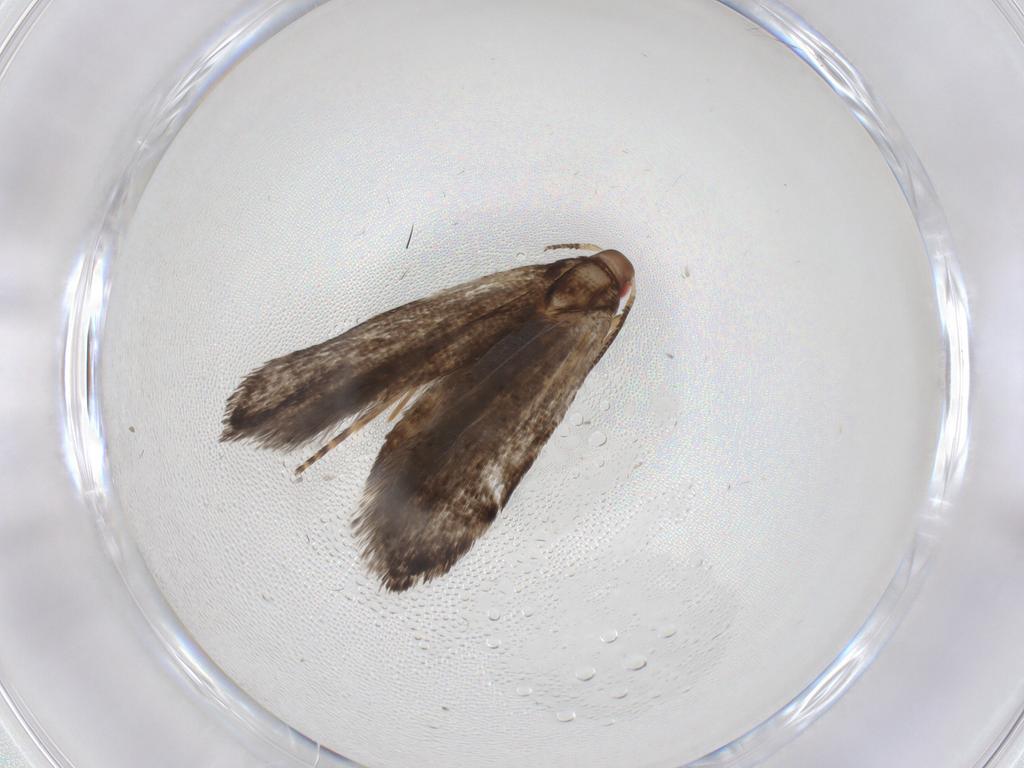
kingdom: Animalia
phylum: Arthropoda
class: Insecta
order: Lepidoptera
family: Gelechiidae
